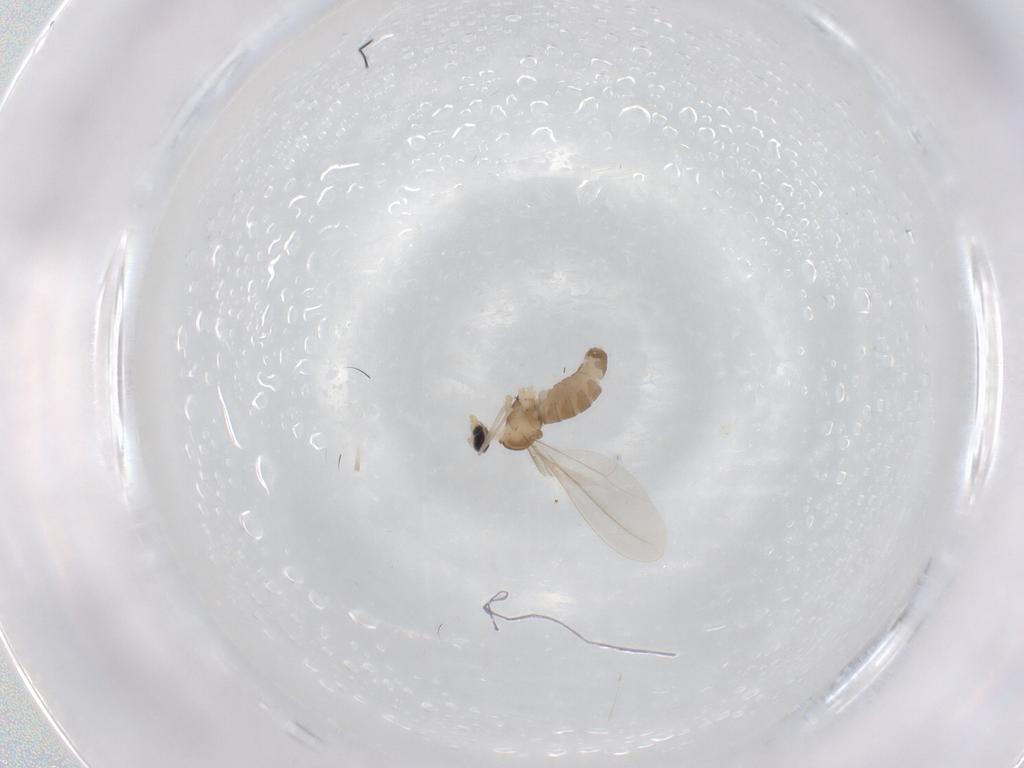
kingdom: Animalia
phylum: Arthropoda
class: Insecta
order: Diptera
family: Cecidomyiidae
